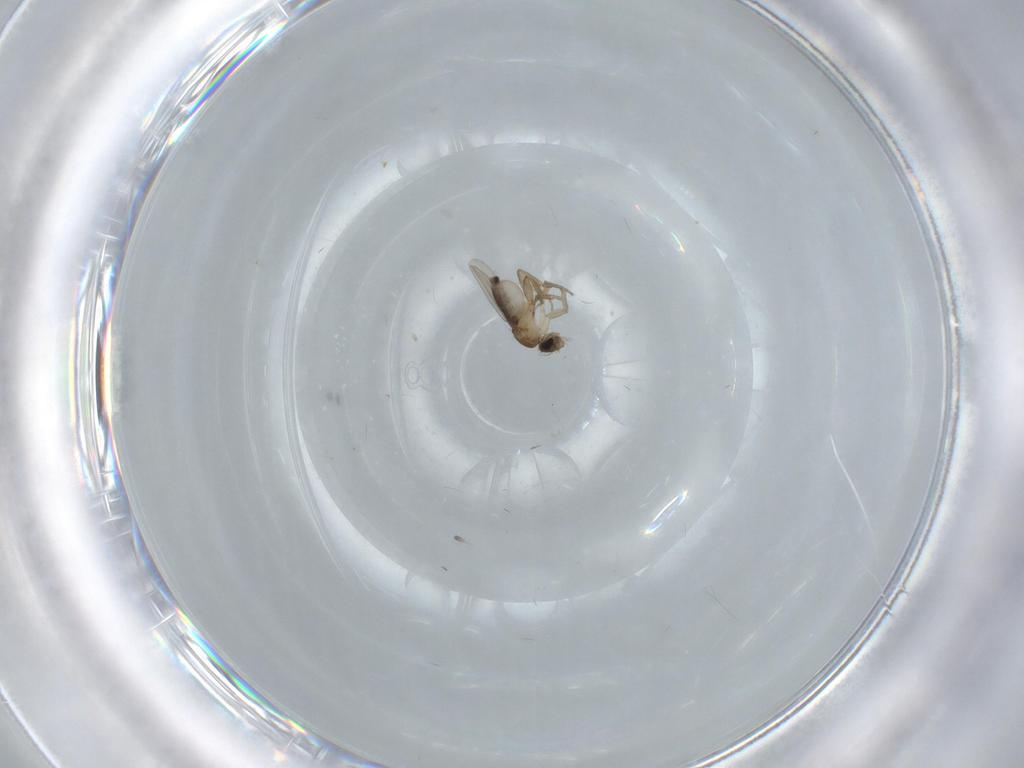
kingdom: Animalia
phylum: Arthropoda
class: Insecta
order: Diptera
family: Phoridae
